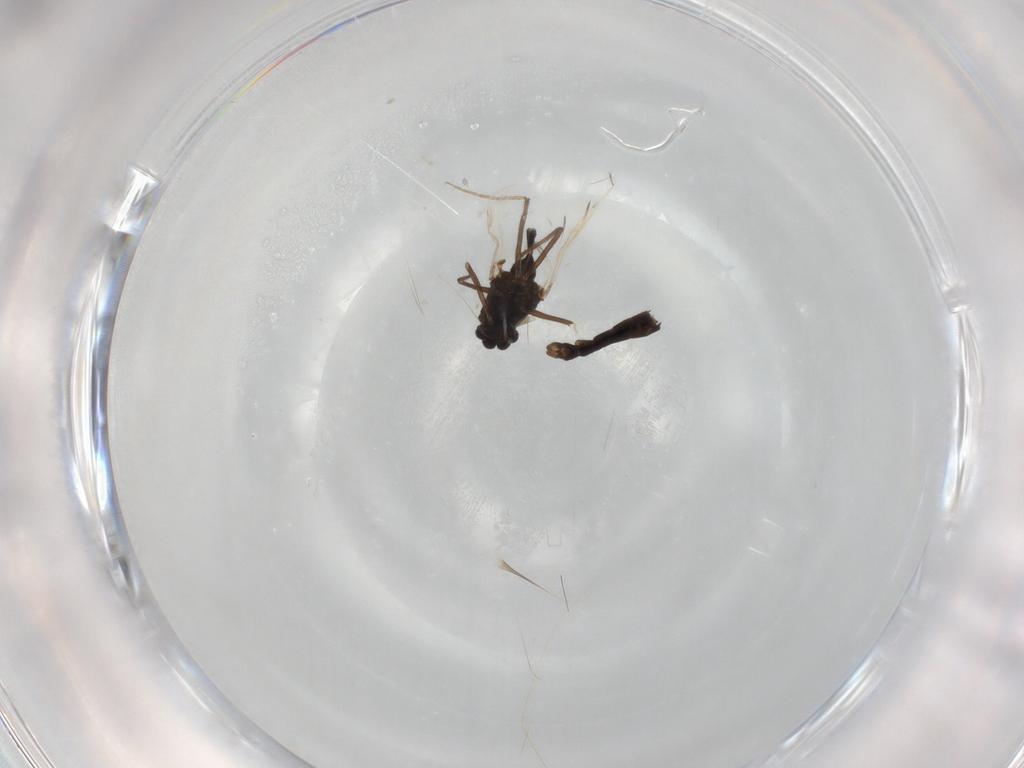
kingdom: Animalia
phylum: Arthropoda
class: Insecta
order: Diptera
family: Chironomidae
